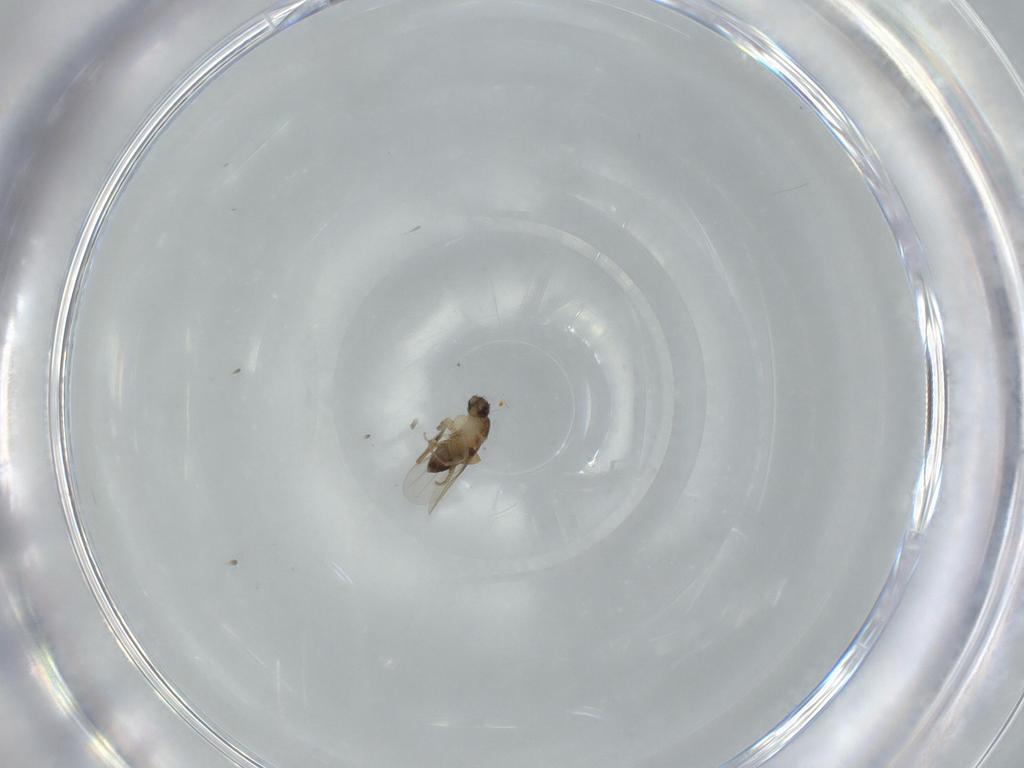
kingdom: Animalia
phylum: Arthropoda
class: Insecta
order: Diptera
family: Phoridae
